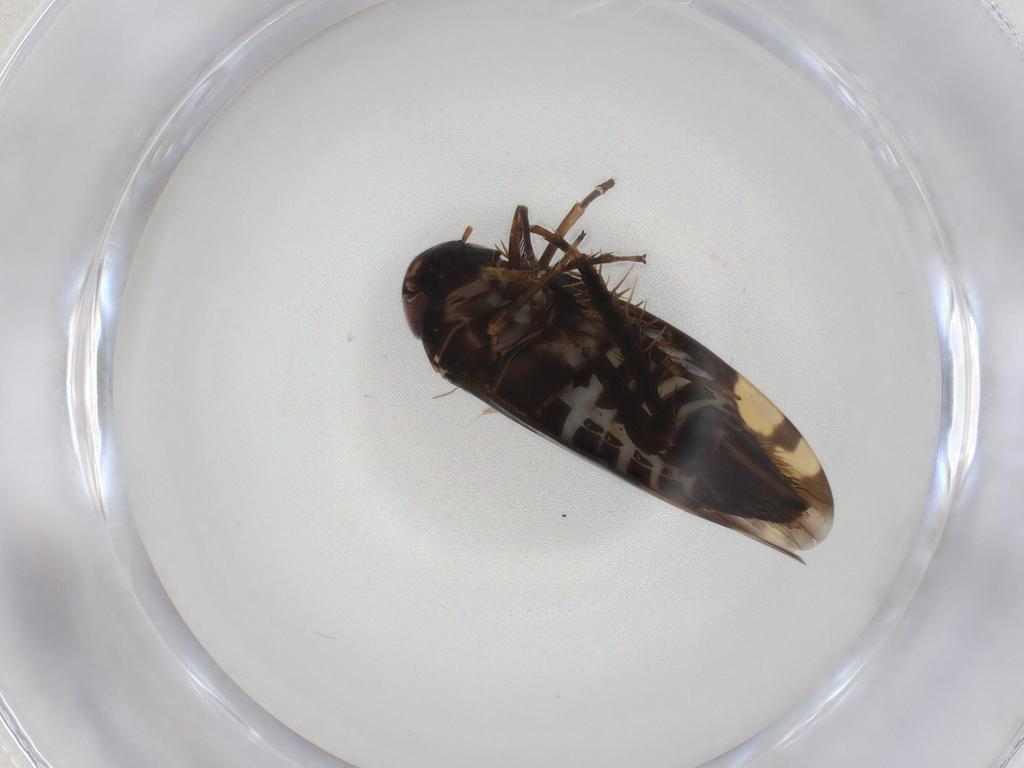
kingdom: Animalia
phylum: Arthropoda
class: Insecta
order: Hemiptera
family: Cicadellidae
